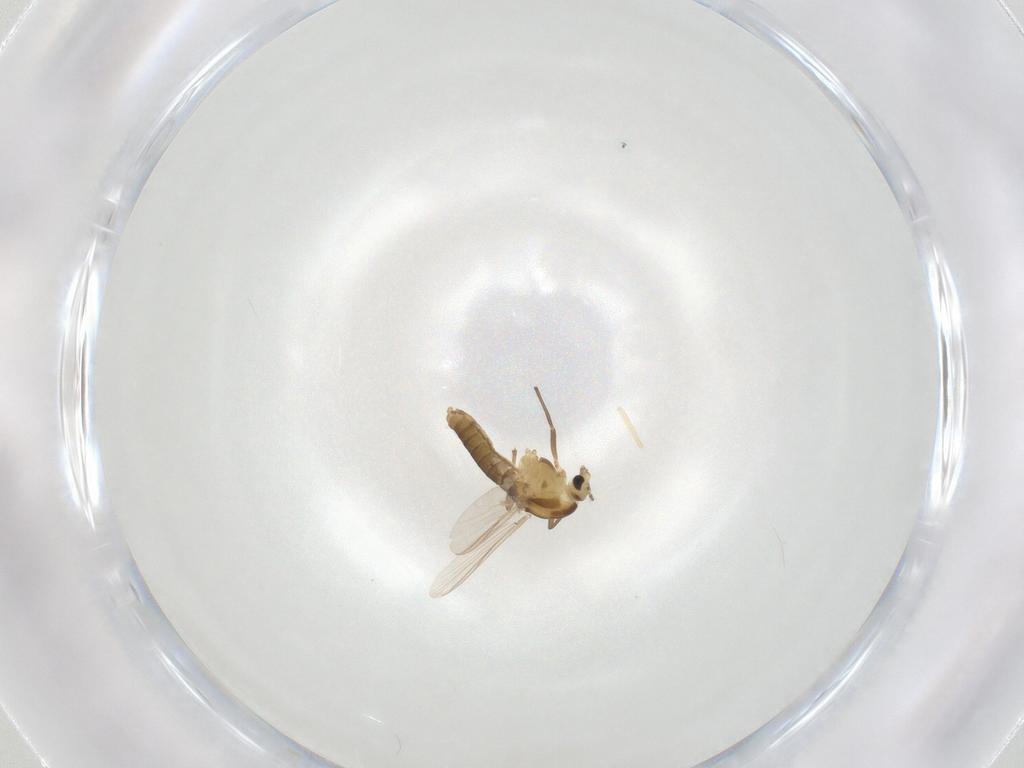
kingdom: Animalia
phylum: Arthropoda
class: Insecta
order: Diptera
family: Chironomidae
